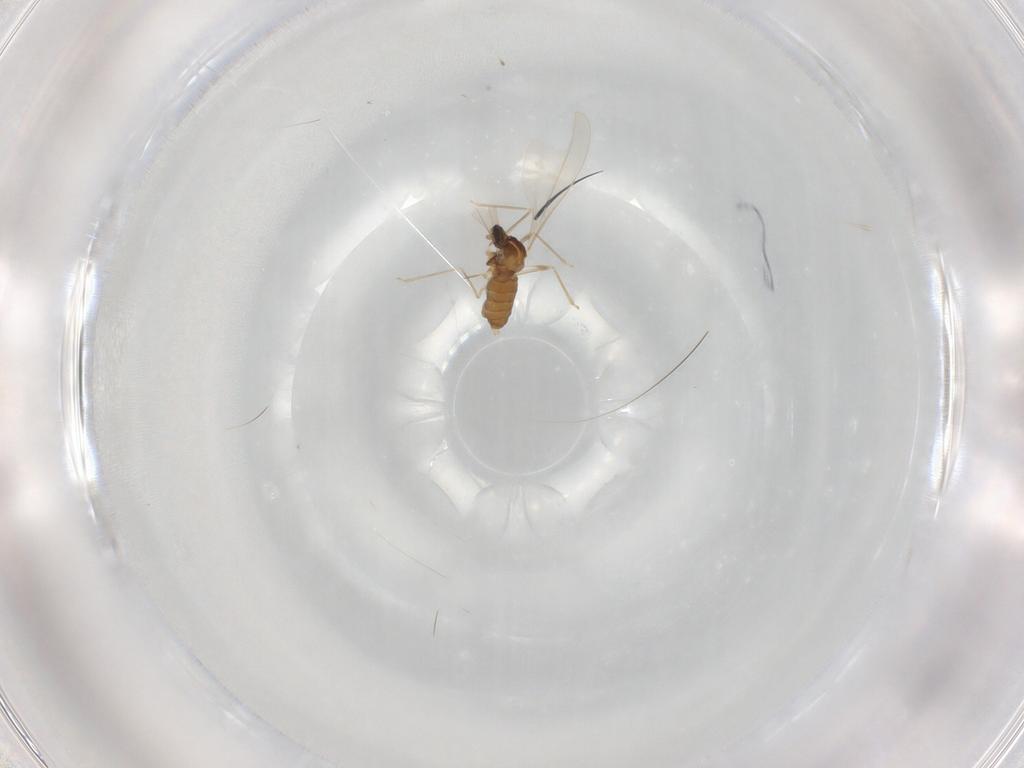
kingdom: Animalia
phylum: Arthropoda
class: Insecta
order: Diptera
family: Cecidomyiidae
